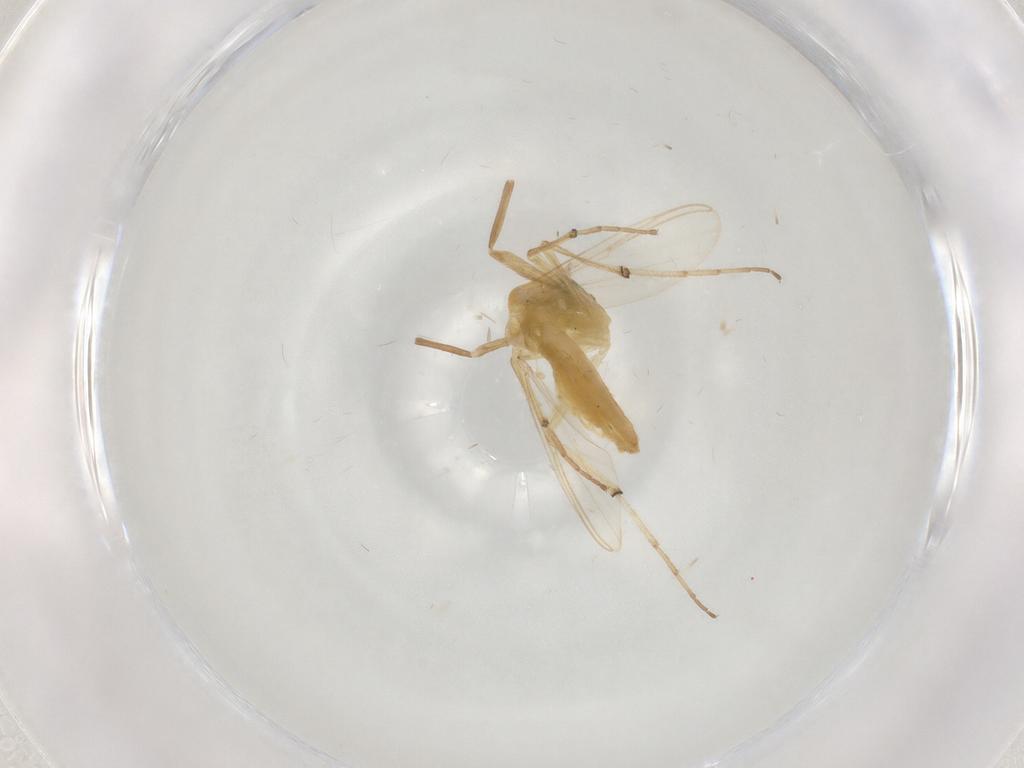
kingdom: Animalia
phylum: Arthropoda
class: Insecta
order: Diptera
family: Chironomidae
